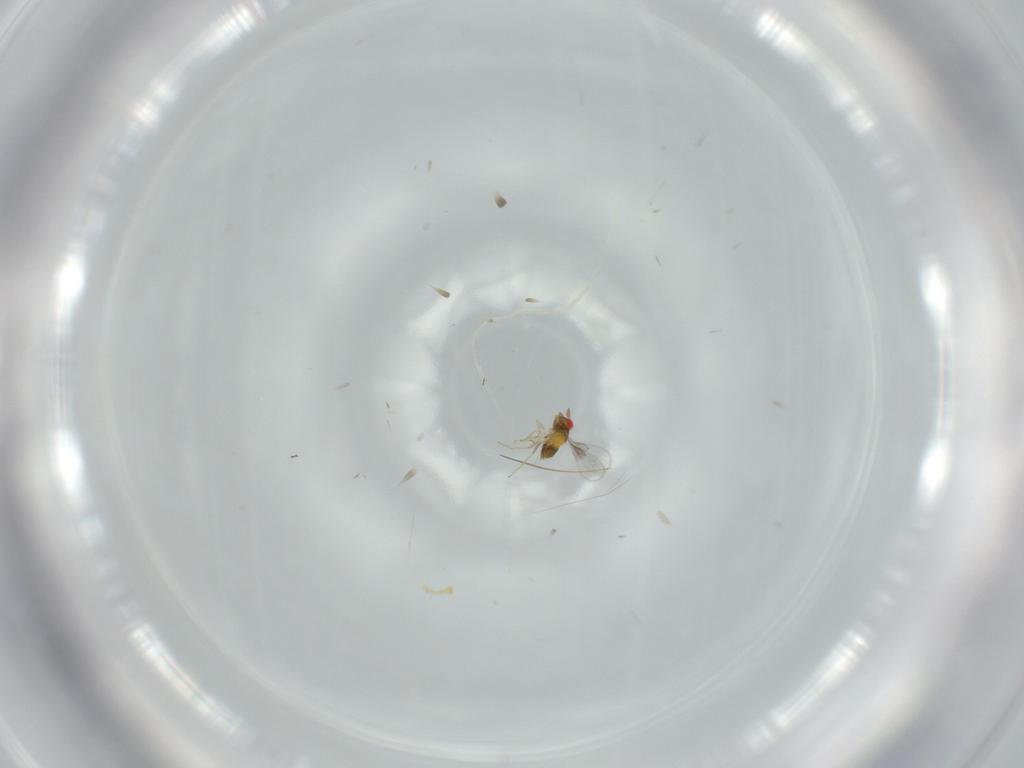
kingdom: Animalia
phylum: Arthropoda
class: Insecta
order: Hymenoptera
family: Trichogrammatidae
